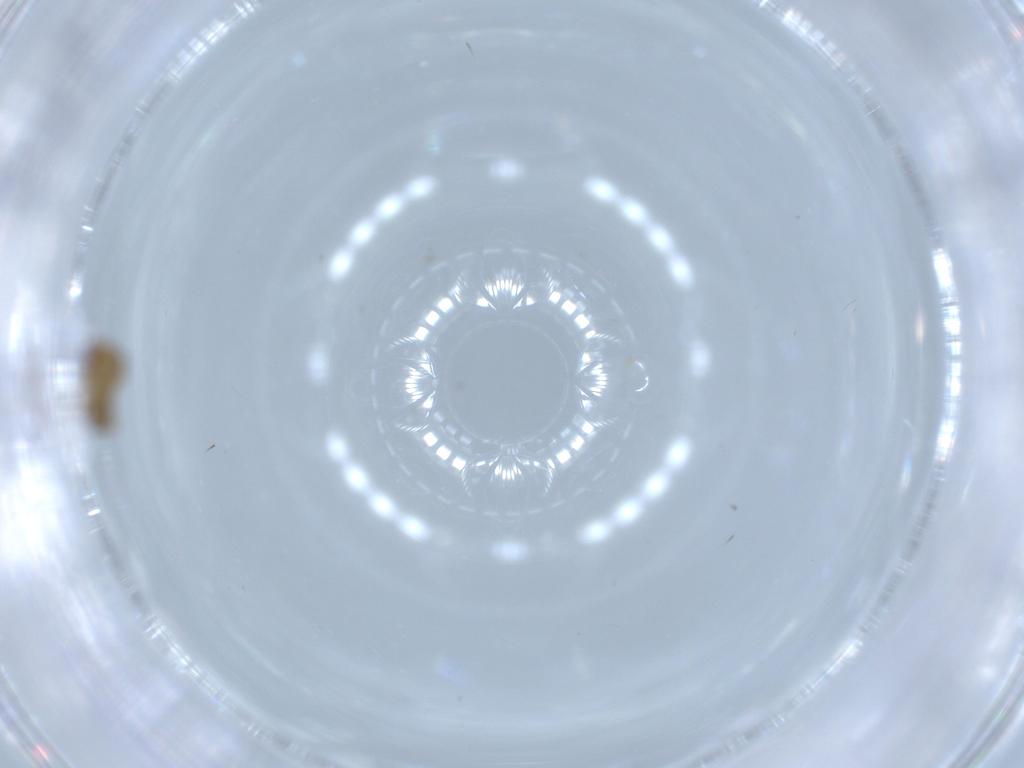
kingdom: Animalia
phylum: Arthropoda
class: Insecta
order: Hymenoptera
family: Torymidae
